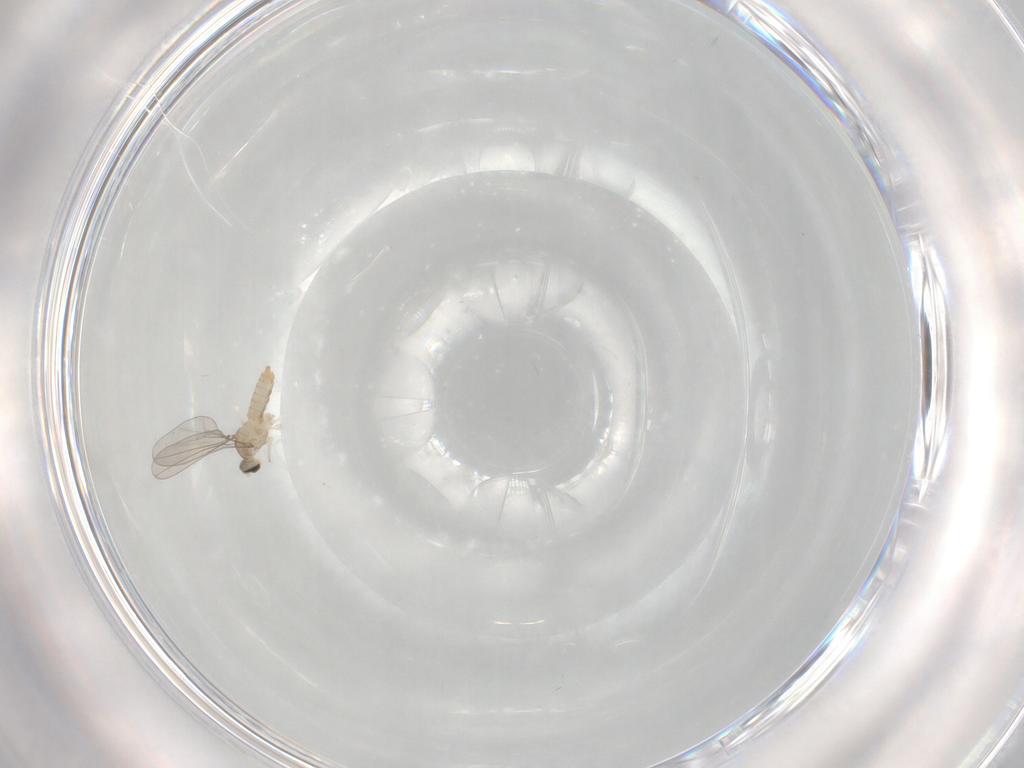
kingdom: Animalia
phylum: Arthropoda
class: Insecta
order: Diptera
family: Cecidomyiidae
